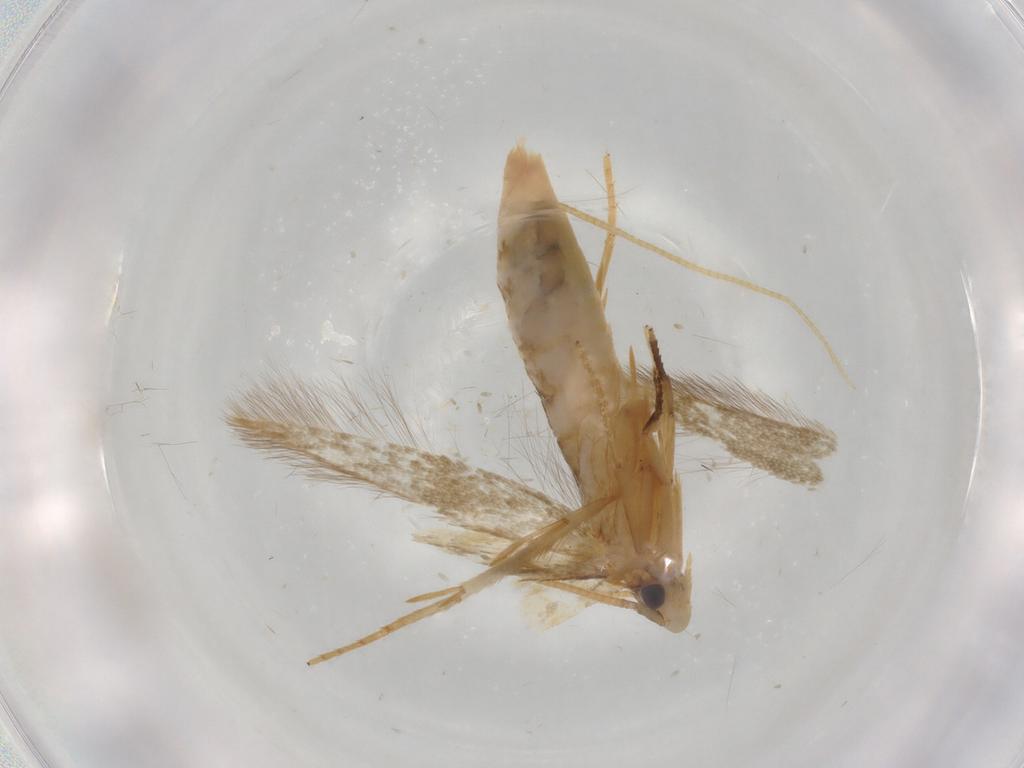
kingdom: Animalia
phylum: Arthropoda
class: Insecta
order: Lepidoptera
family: Tineidae
